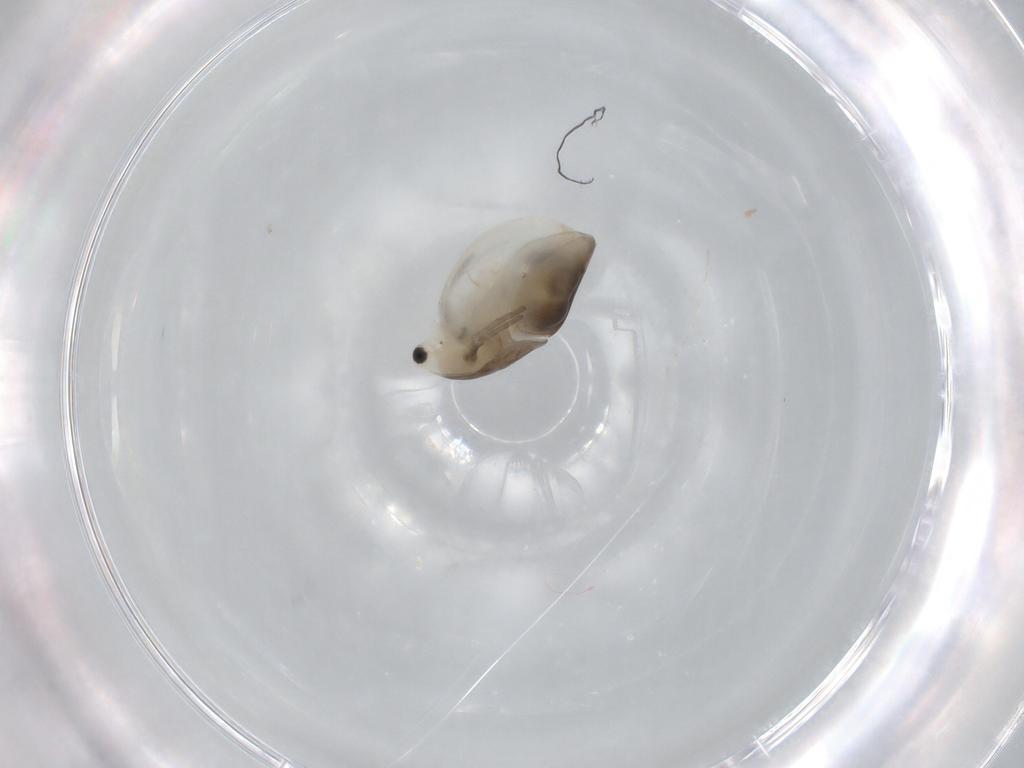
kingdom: Animalia
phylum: Arthropoda
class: Branchiopoda
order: Diplostraca
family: Daphniidae
